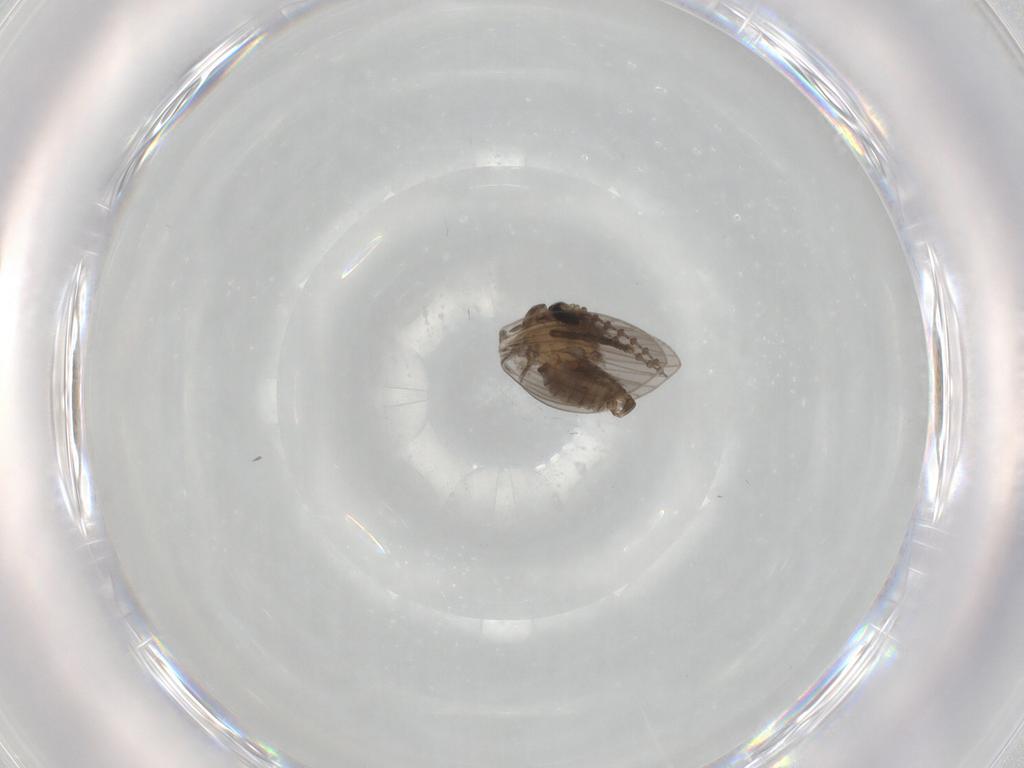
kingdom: Animalia
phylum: Arthropoda
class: Insecta
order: Diptera
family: Psychodidae
